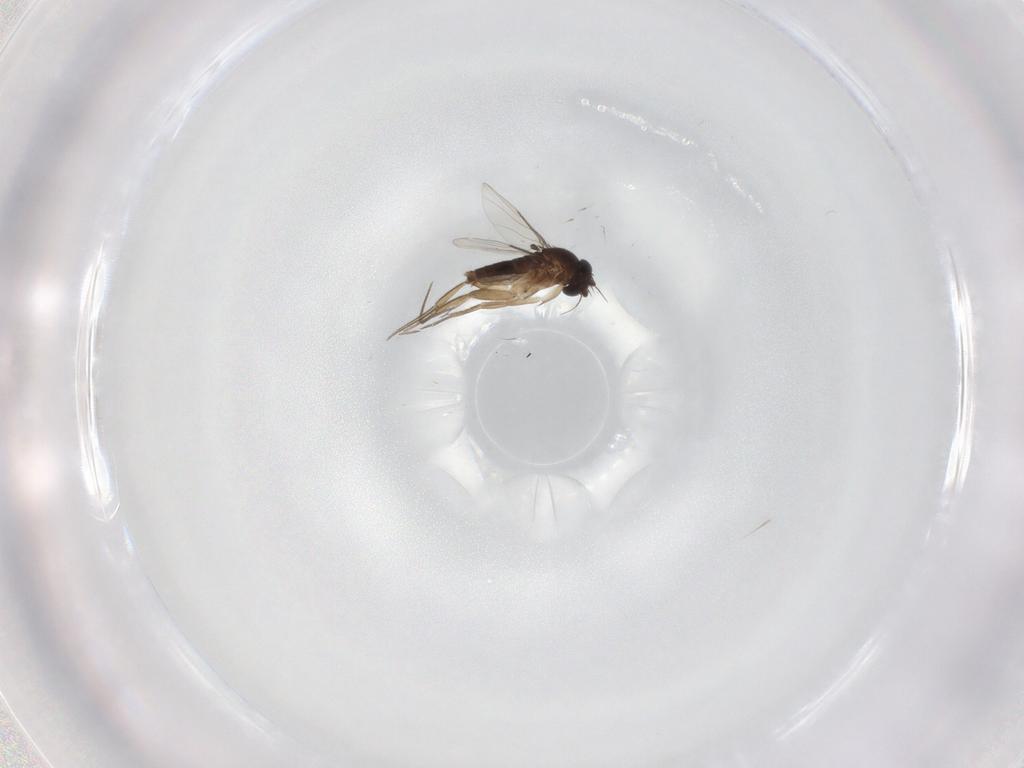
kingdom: Animalia
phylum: Arthropoda
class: Insecta
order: Diptera
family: Phoridae
